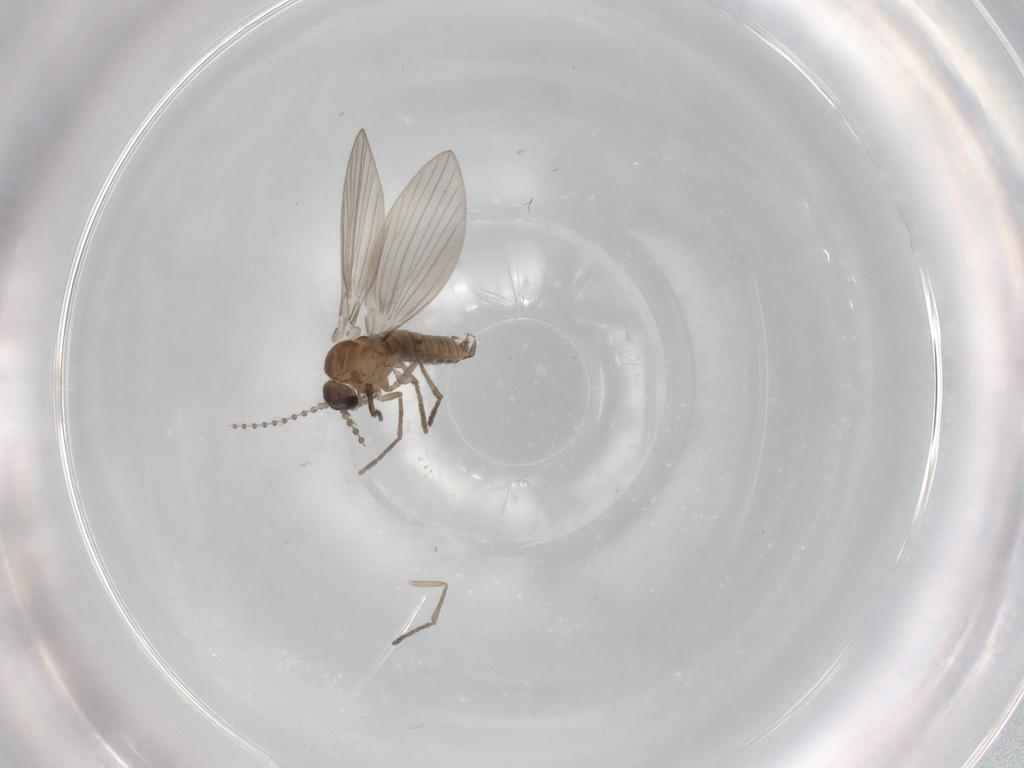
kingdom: Animalia
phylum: Arthropoda
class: Insecta
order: Diptera
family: Psychodidae
